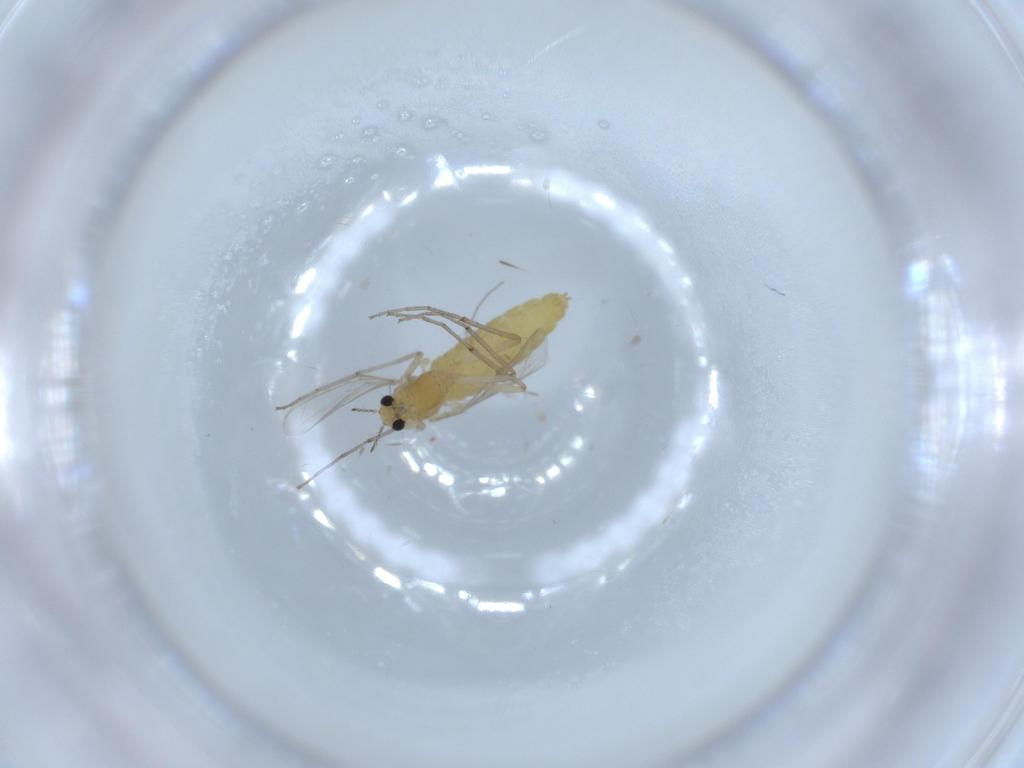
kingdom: Animalia
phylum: Arthropoda
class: Insecta
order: Diptera
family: Chironomidae
